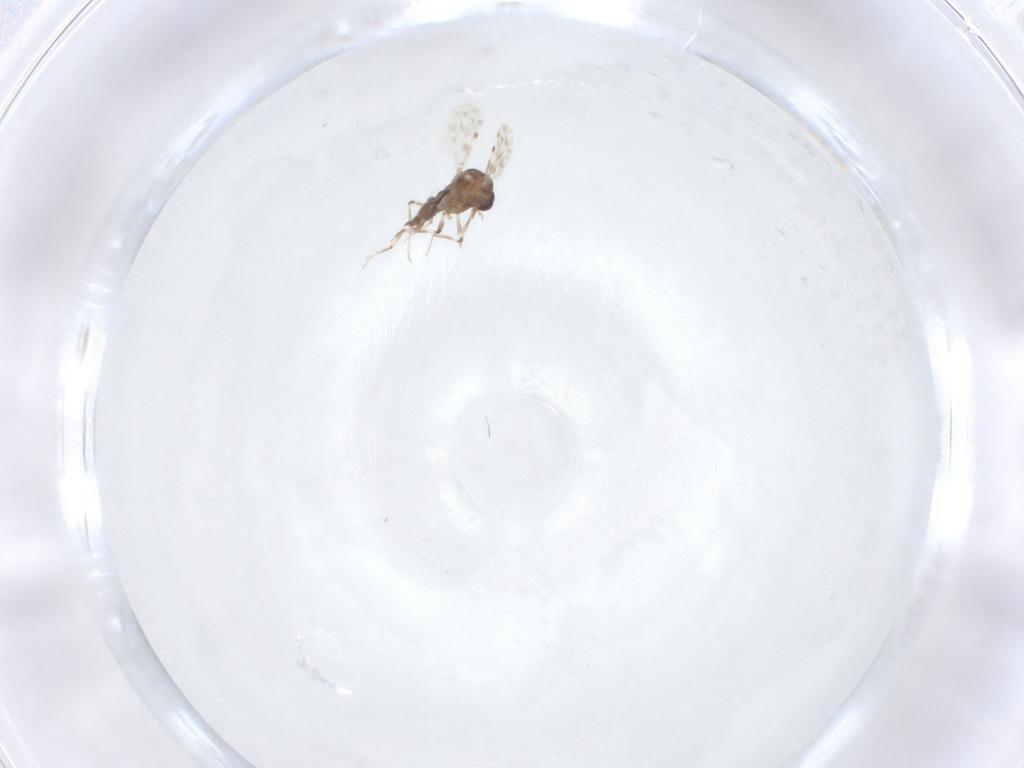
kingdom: Animalia
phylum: Arthropoda
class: Insecta
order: Diptera
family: Ceratopogonidae
